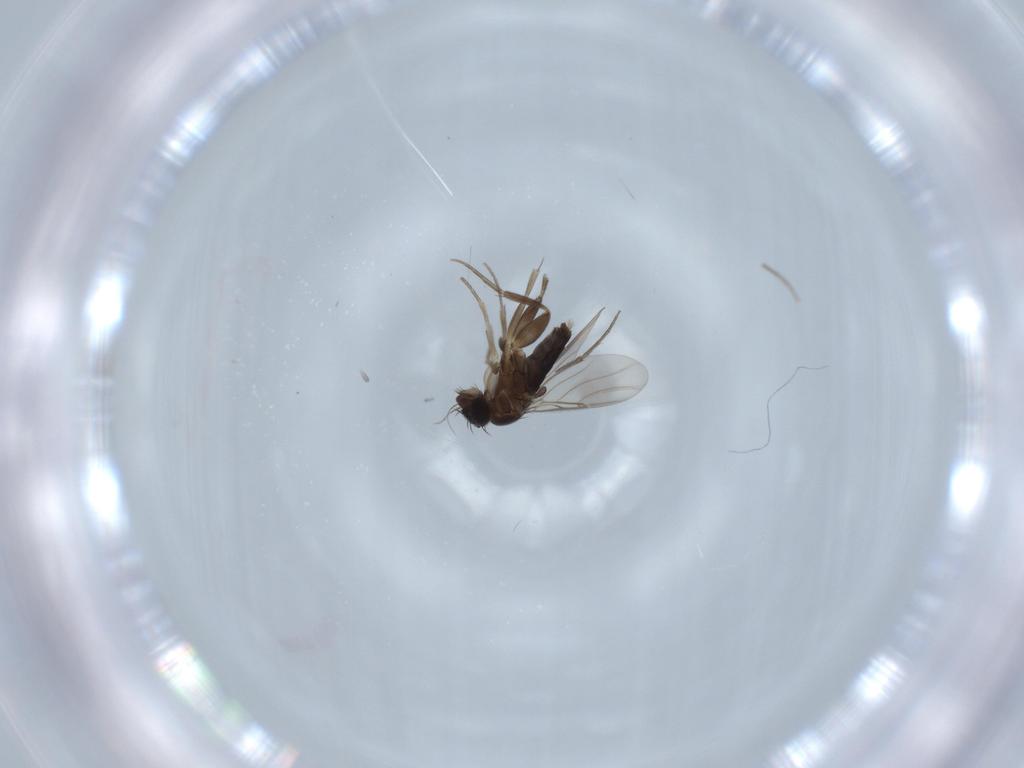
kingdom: Animalia
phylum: Arthropoda
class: Insecta
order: Diptera
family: Phoridae
